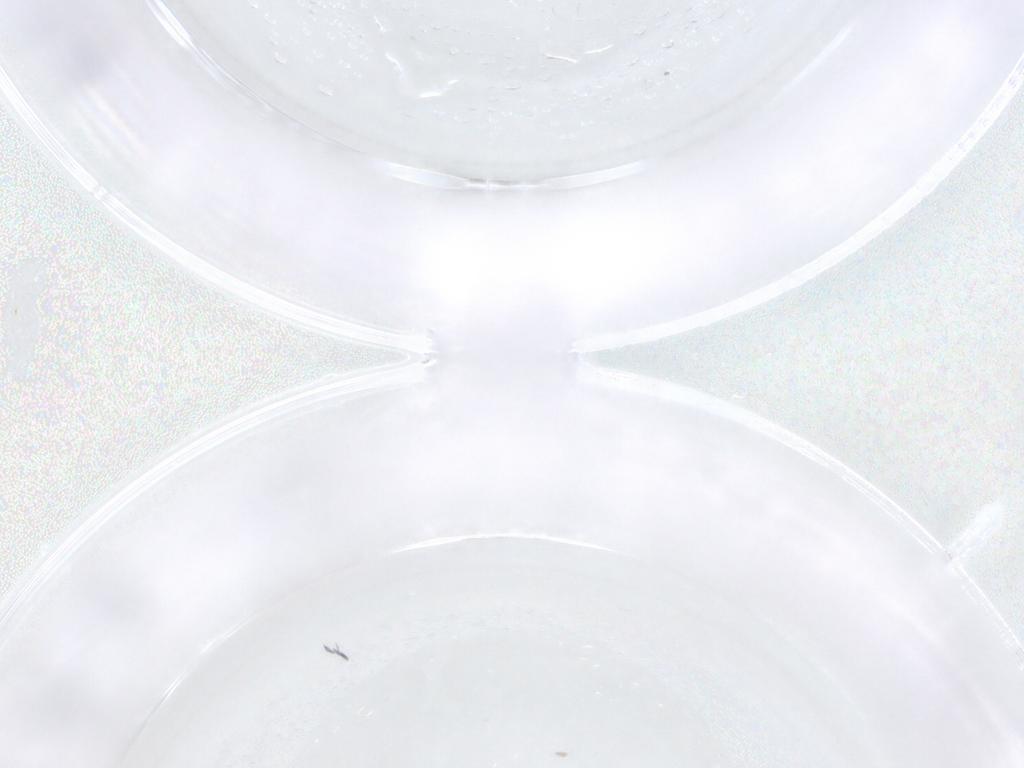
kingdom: Animalia
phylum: Arthropoda
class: Insecta
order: Diptera
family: Cecidomyiidae
